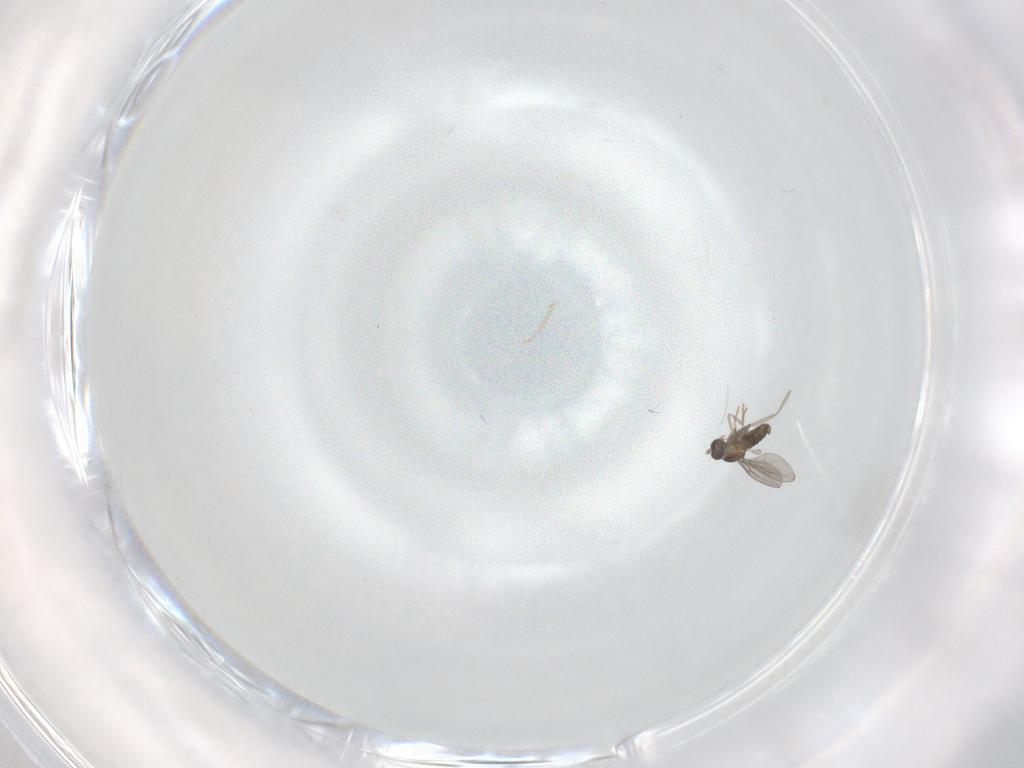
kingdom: Animalia
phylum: Arthropoda
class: Insecta
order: Diptera
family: Cecidomyiidae
